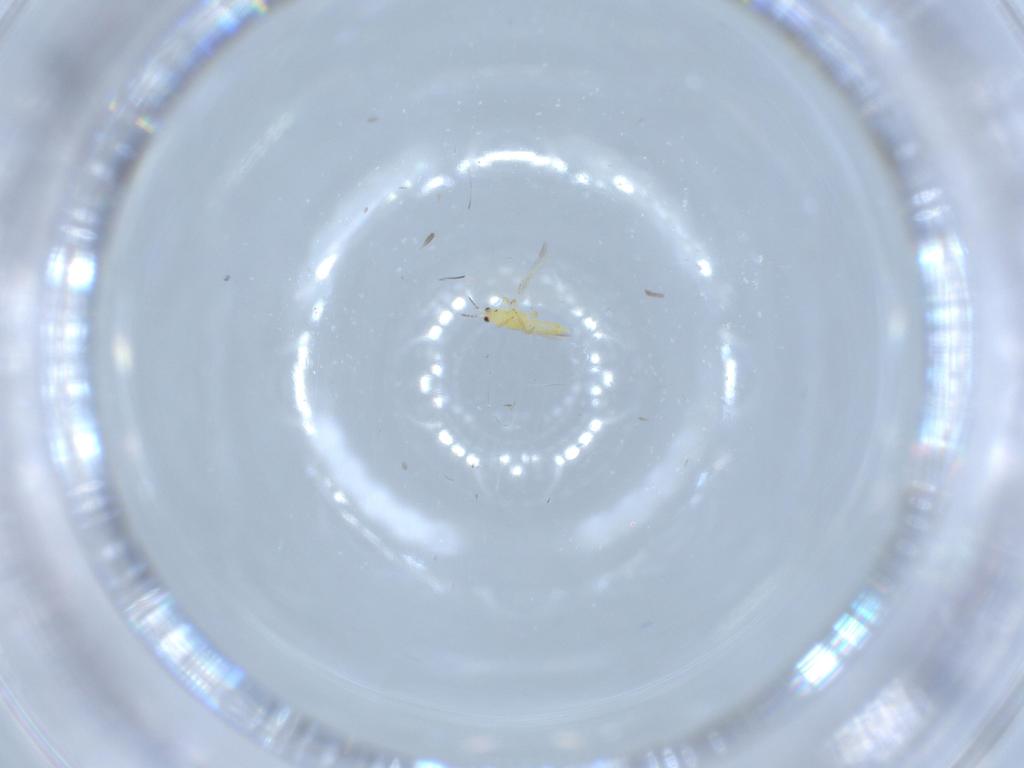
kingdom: Animalia
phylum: Arthropoda
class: Insecta
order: Thysanoptera
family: Thripidae
